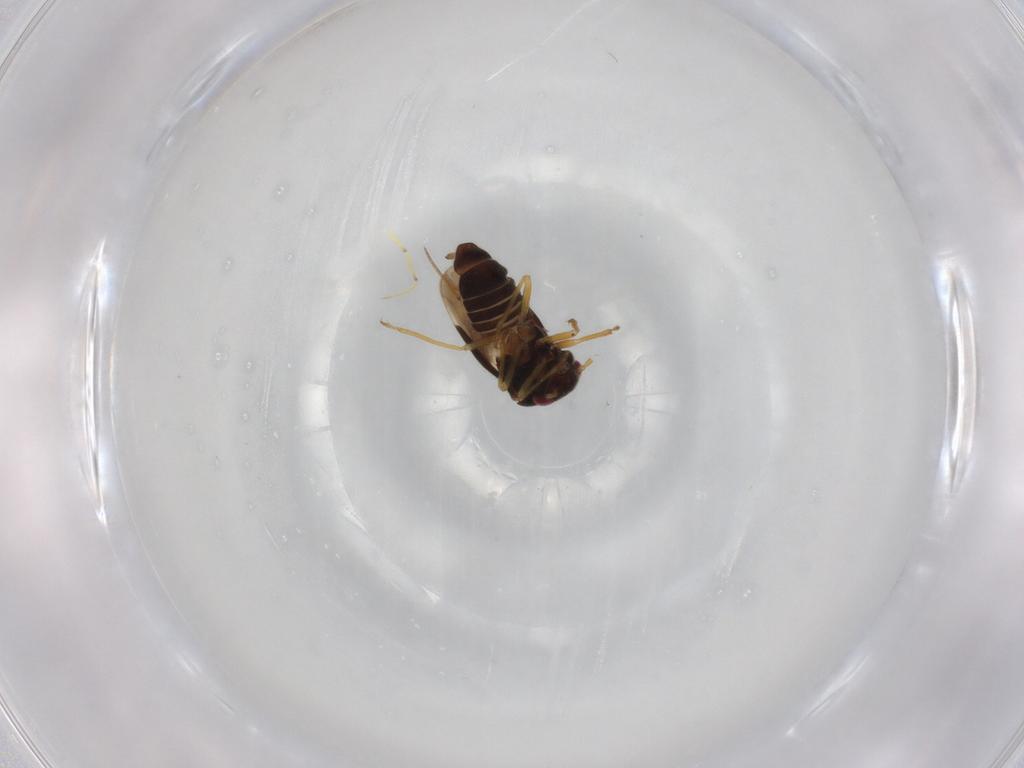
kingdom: Animalia
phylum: Arthropoda
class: Insecta
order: Hemiptera
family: Schizopteridae
